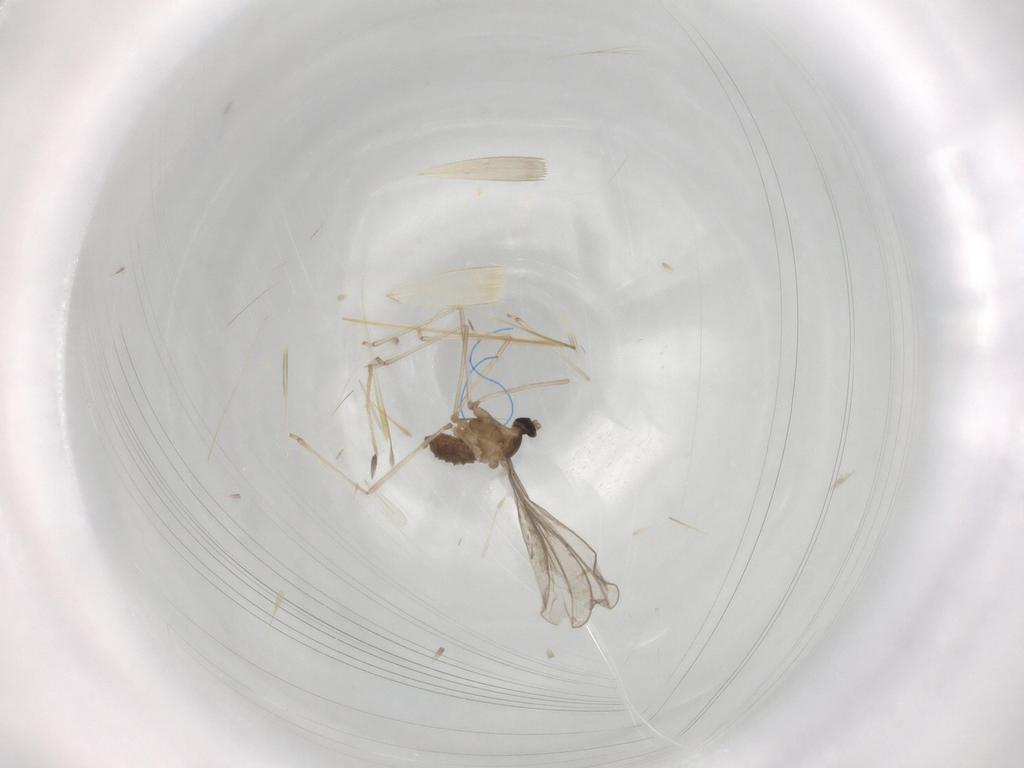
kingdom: Animalia
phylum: Arthropoda
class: Insecta
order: Diptera
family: Cecidomyiidae
